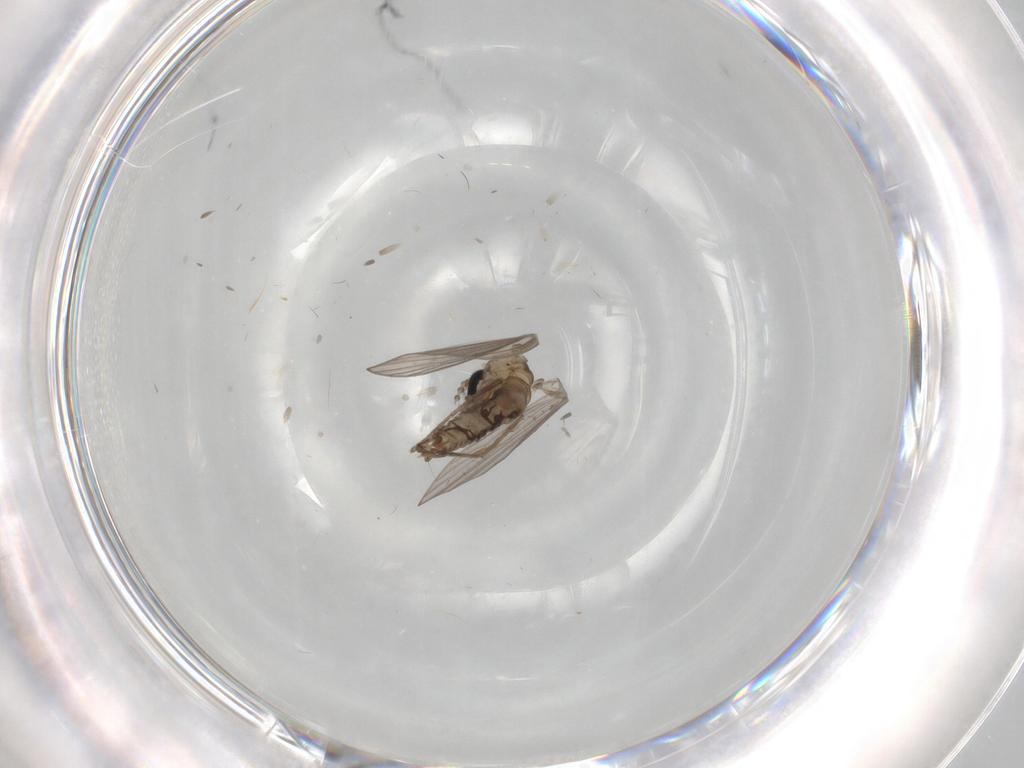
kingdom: Animalia
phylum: Arthropoda
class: Insecta
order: Diptera
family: Psychodidae
